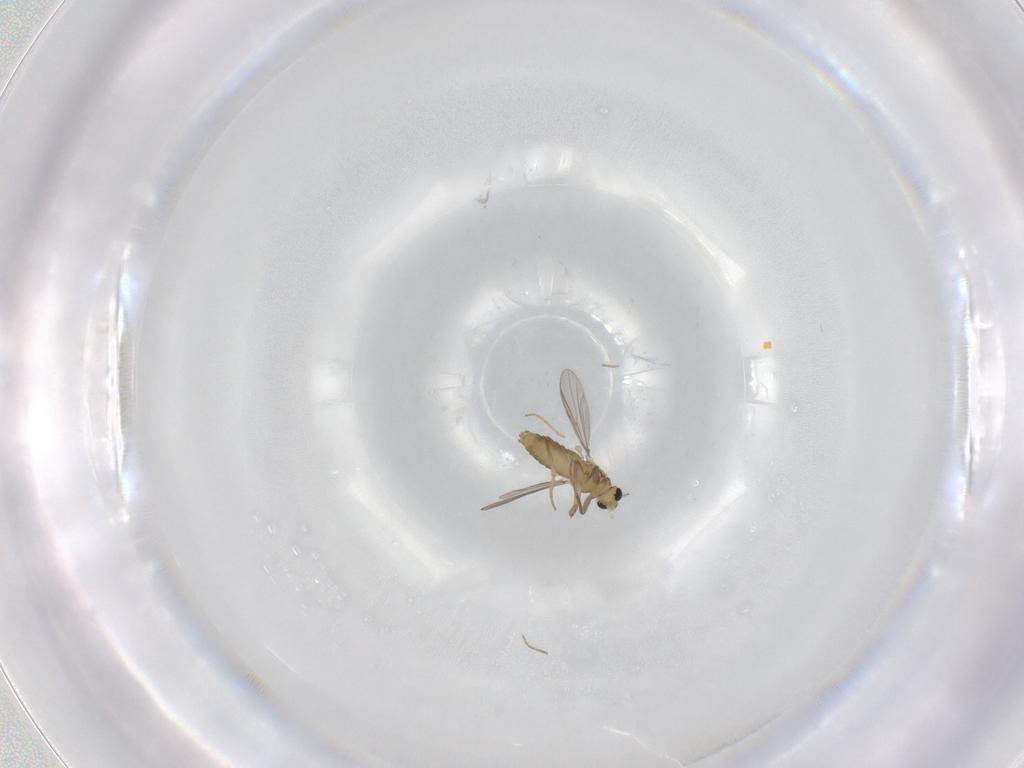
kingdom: Animalia
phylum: Arthropoda
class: Insecta
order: Diptera
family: Chironomidae
